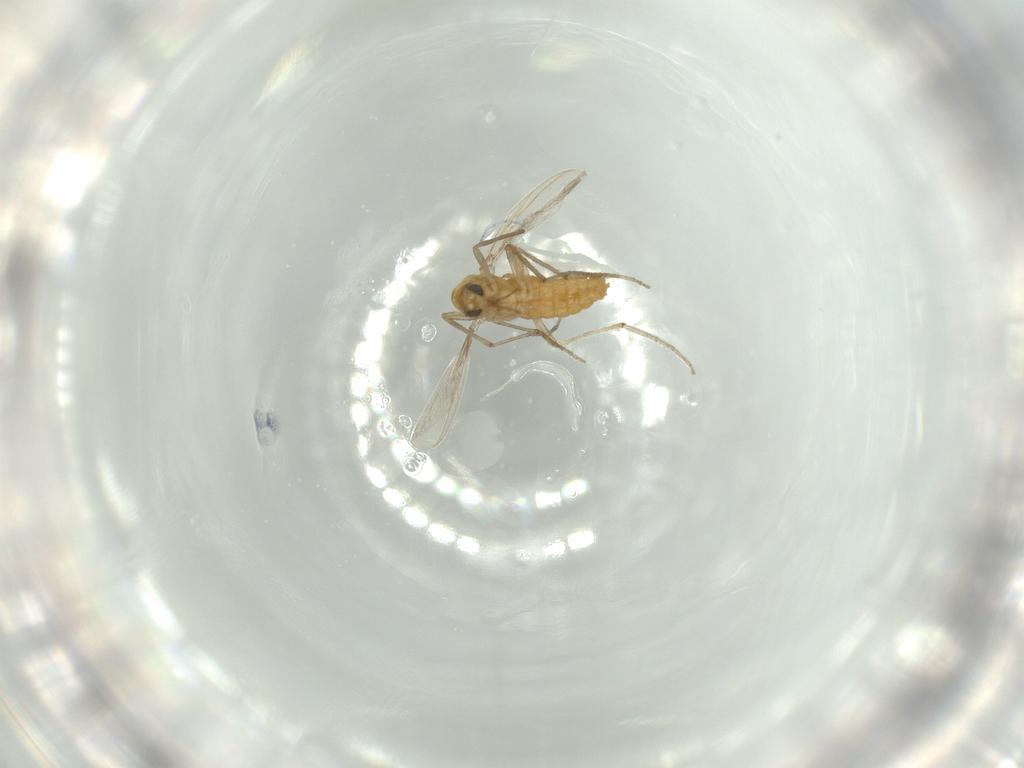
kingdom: Animalia
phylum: Arthropoda
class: Insecta
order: Diptera
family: Chironomidae
